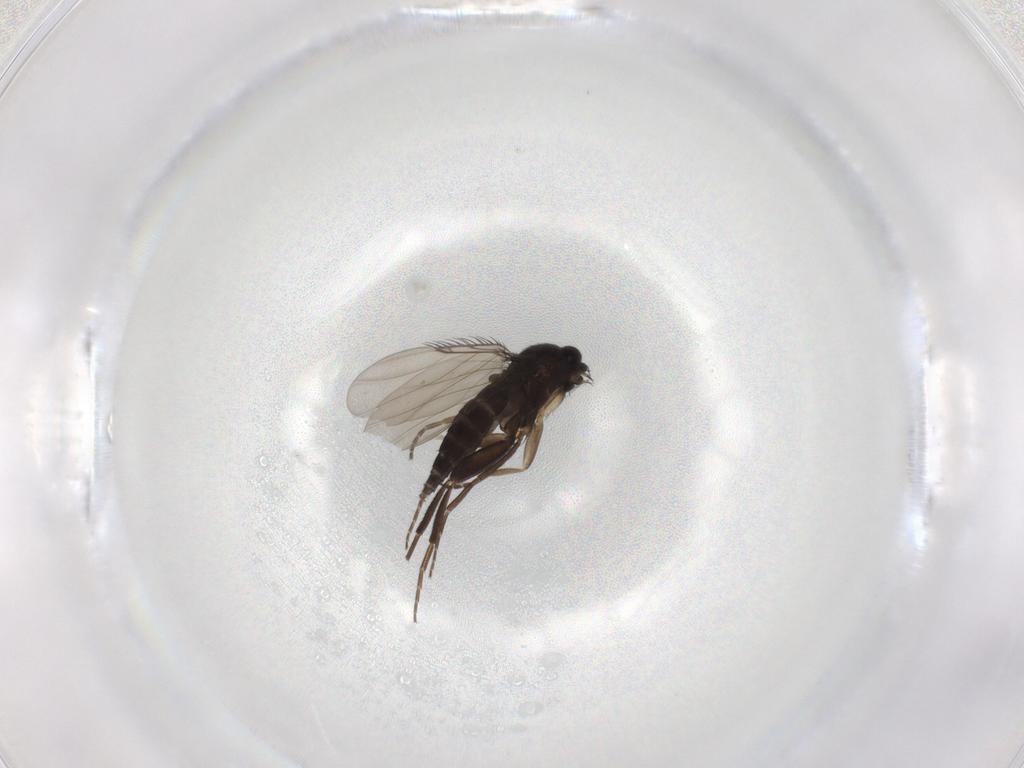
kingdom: Animalia
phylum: Arthropoda
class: Insecta
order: Diptera
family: Phoridae
